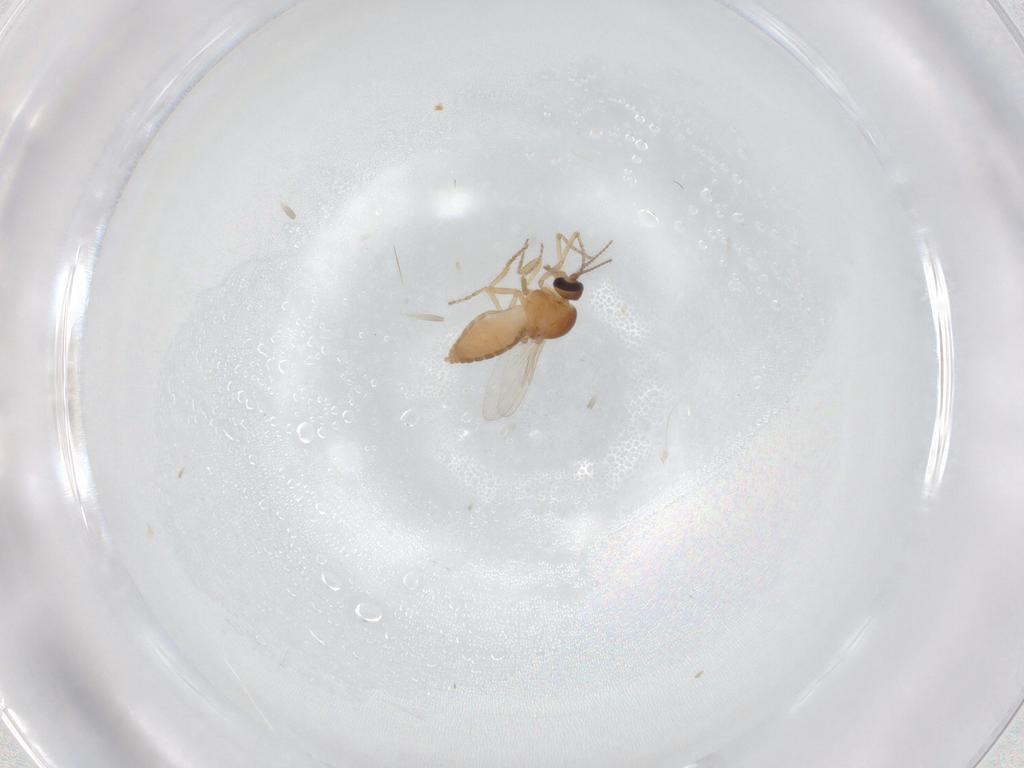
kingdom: Animalia
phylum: Arthropoda
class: Insecta
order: Diptera
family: Ceratopogonidae
